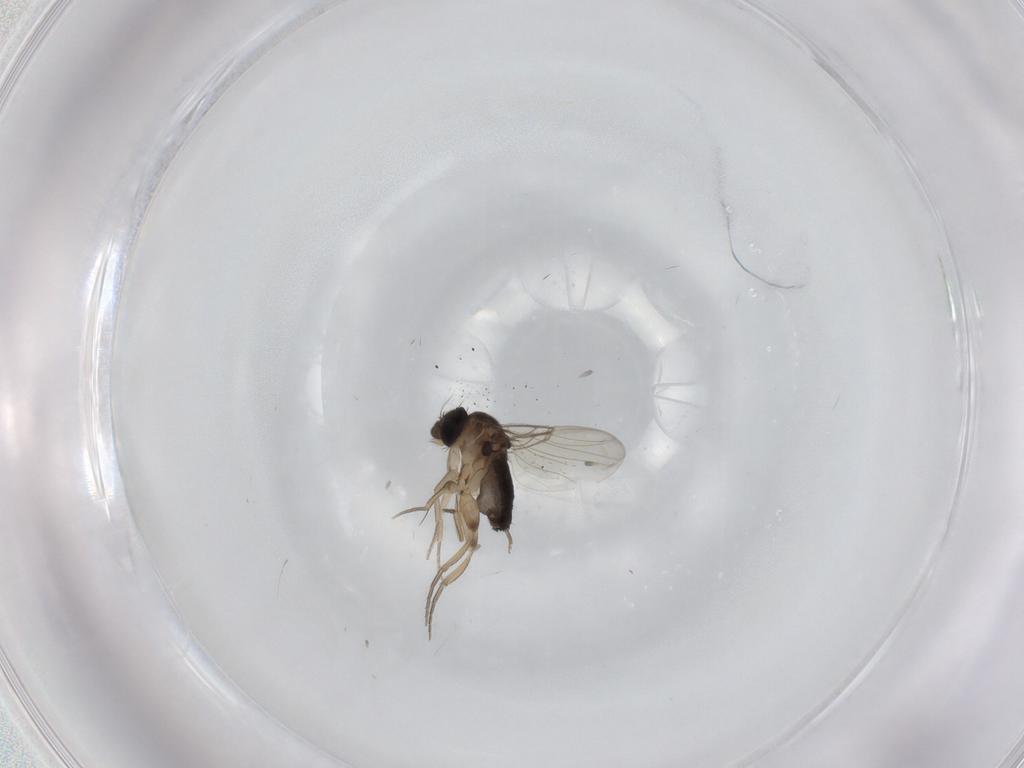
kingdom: Animalia
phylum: Arthropoda
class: Insecta
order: Diptera
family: Phoridae
